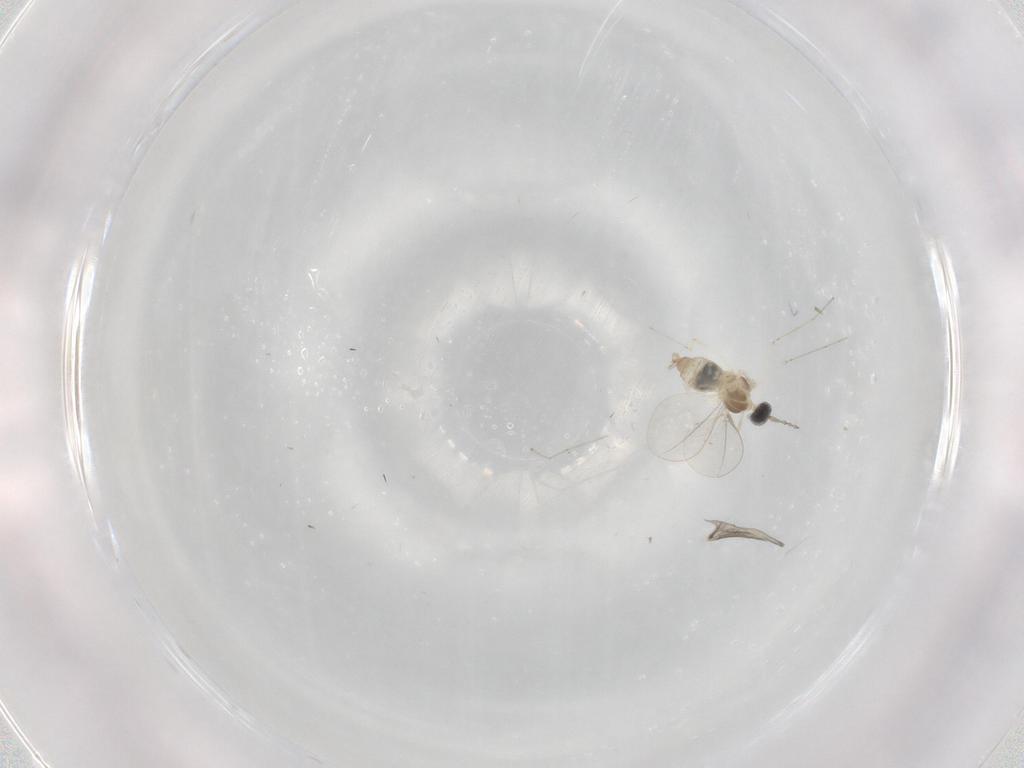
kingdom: Animalia
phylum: Arthropoda
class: Insecta
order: Diptera
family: Cecidomyiidae
